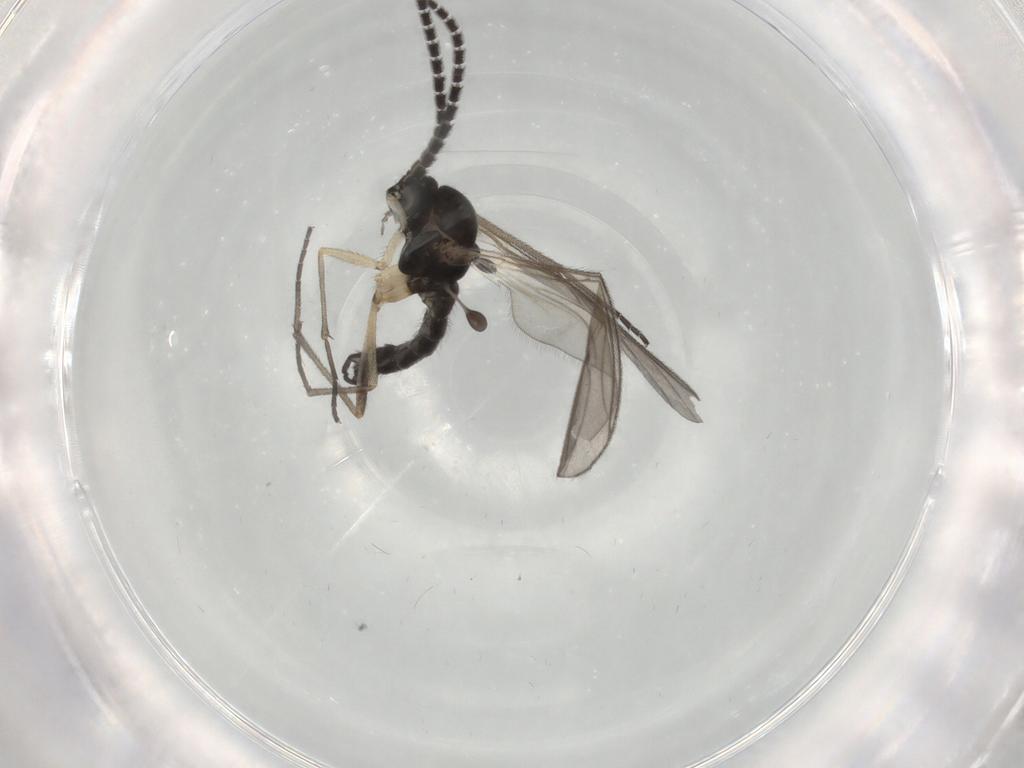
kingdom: Animalia
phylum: Arthropoda
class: Insecta
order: Diptera
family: Sciaridae
